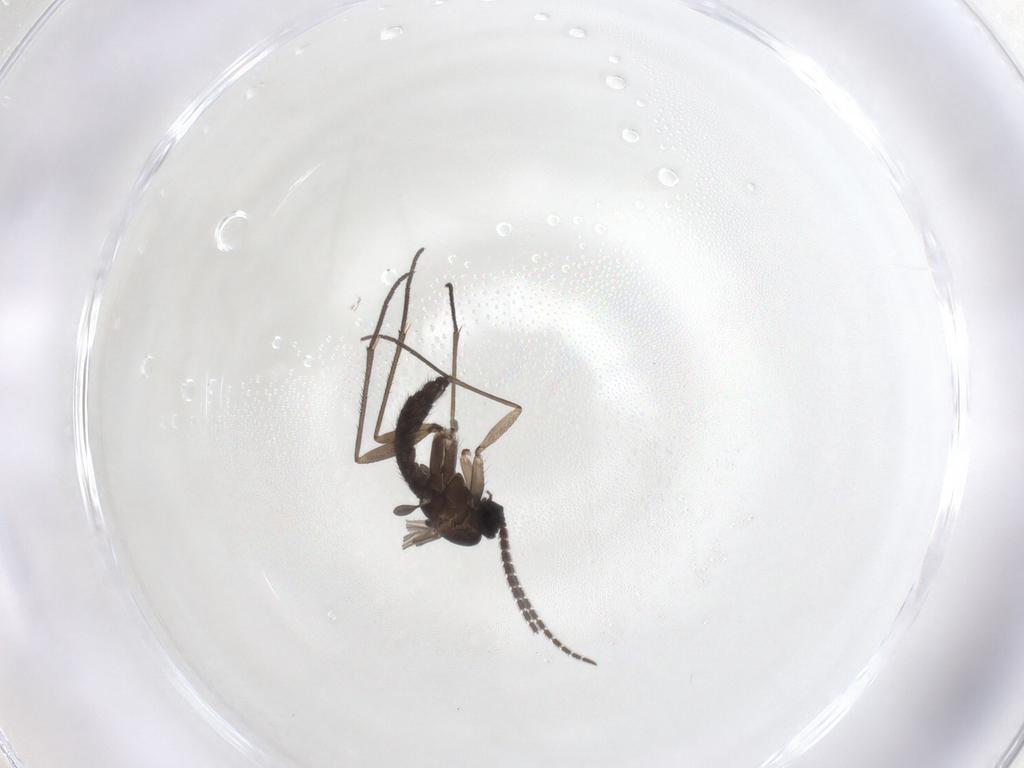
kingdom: Animalia
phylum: Arthropoda
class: Insecta
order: Diptera
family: Sciaridae
